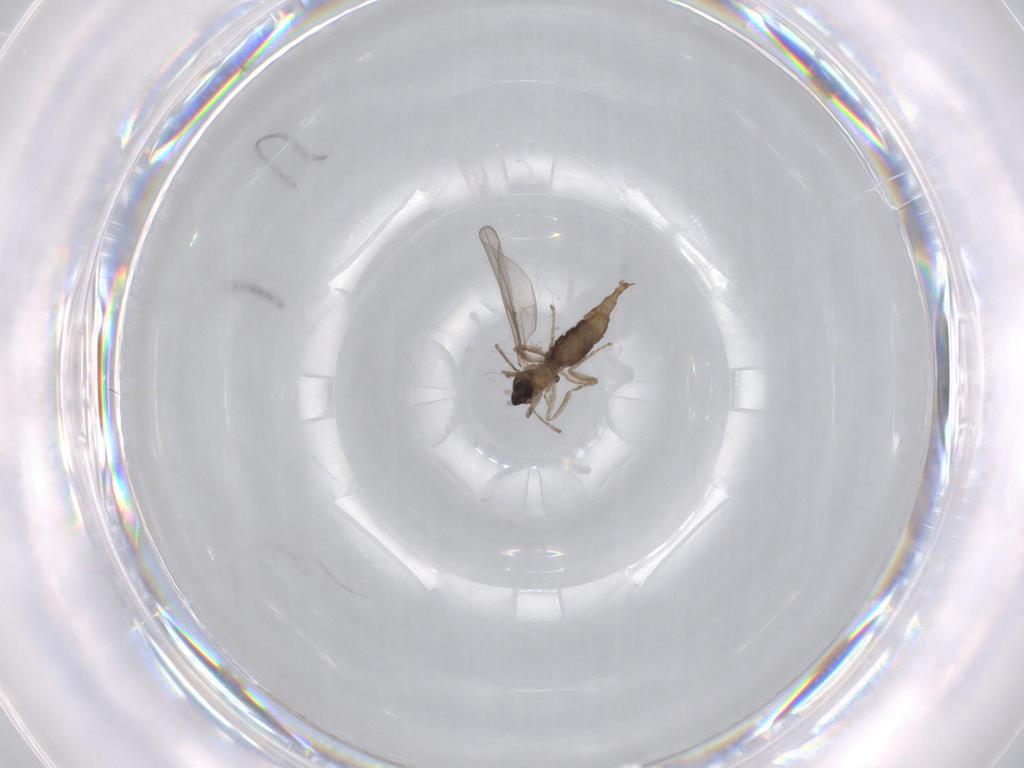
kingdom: Animalia
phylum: Arthropoda
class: Insecta
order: Diptera
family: Cecidomyiidae
